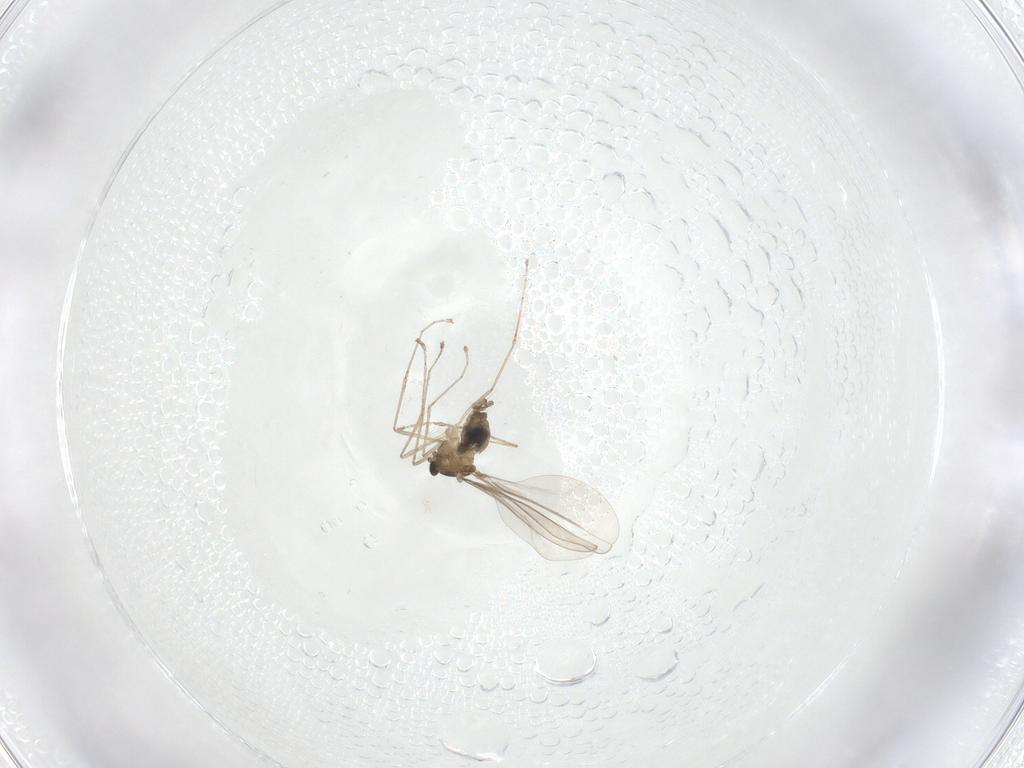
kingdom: Animalia
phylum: Arthropoda
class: Insecta
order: Diptera
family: Cecidomyiidae
